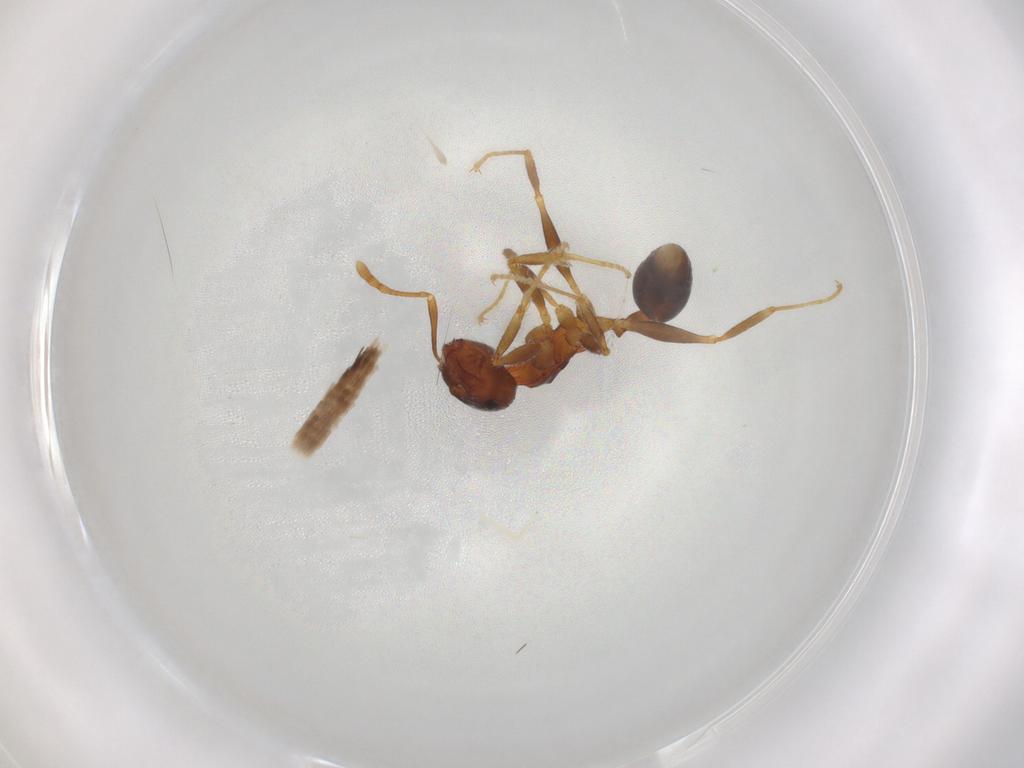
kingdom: Animalia
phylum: Arthropoda
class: Insecta
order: Hymenoptera
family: Formicidae
